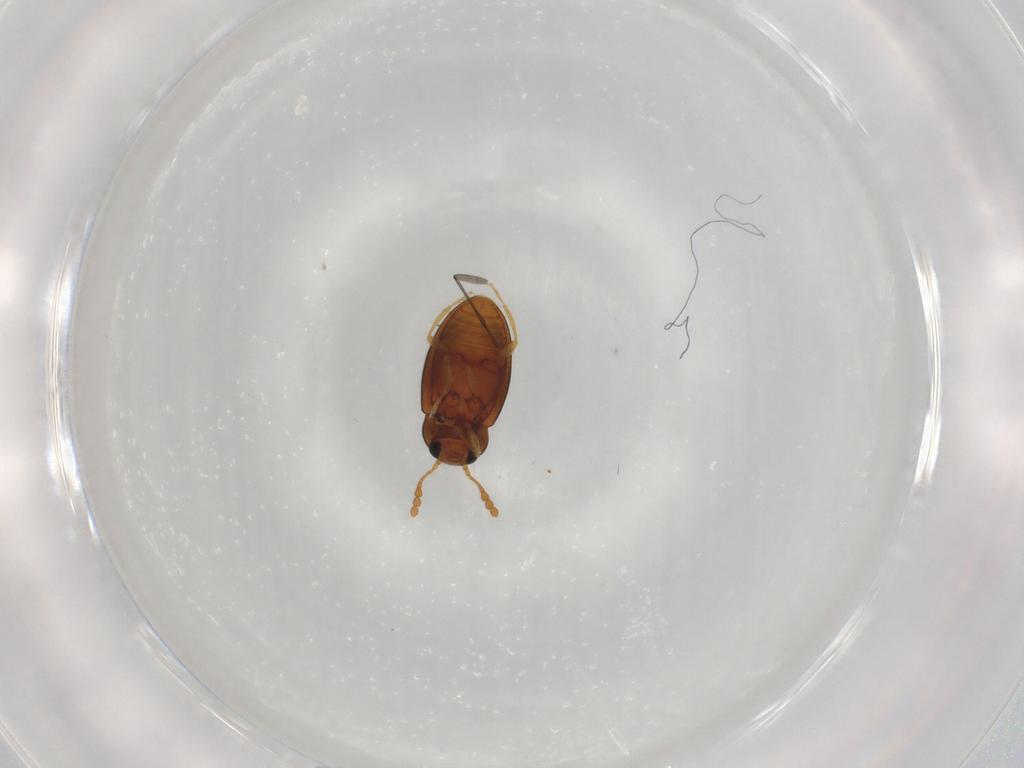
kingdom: Animalia
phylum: Arthropoda
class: Insecta
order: Coleoptera
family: Erotylidae
